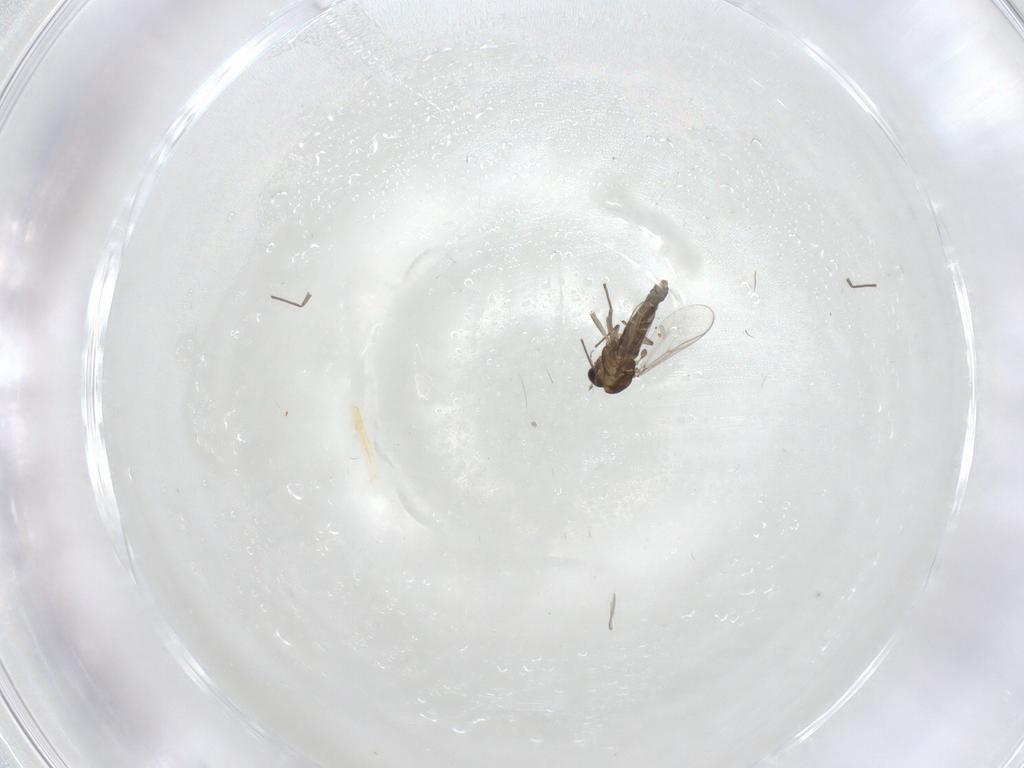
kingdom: Animalia
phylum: Arthropoda
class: Insecta
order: Diptera
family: Chironomidae
